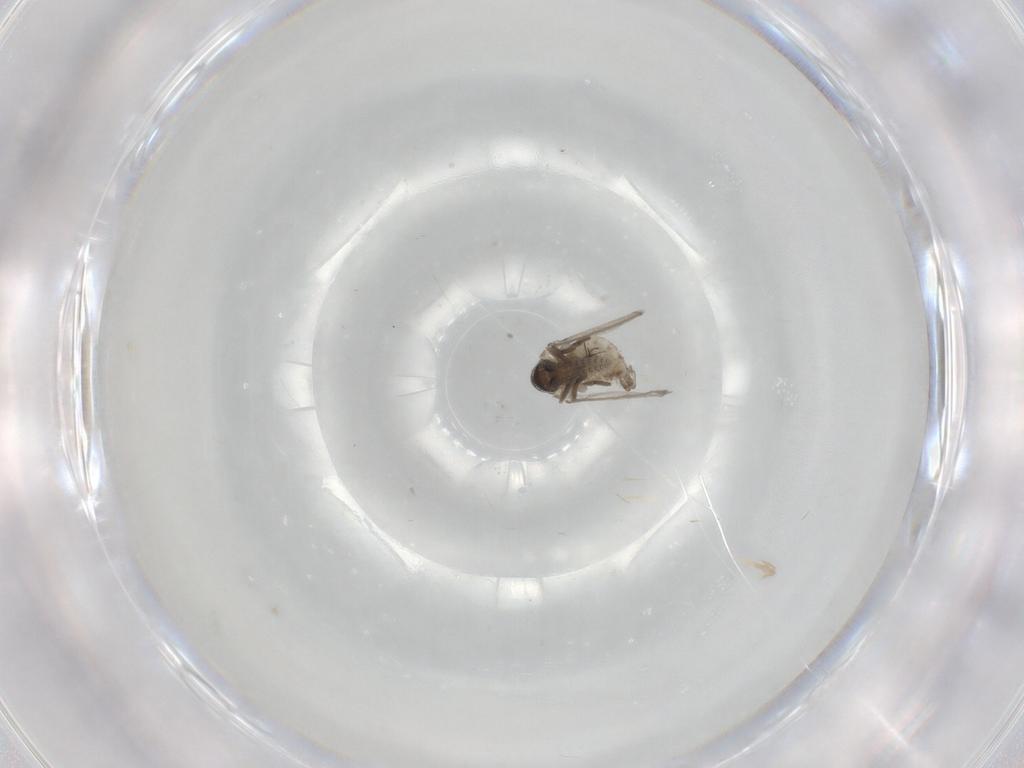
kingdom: Animalia
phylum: Arthropoda
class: Insecta
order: Diptera
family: Psychodidae
